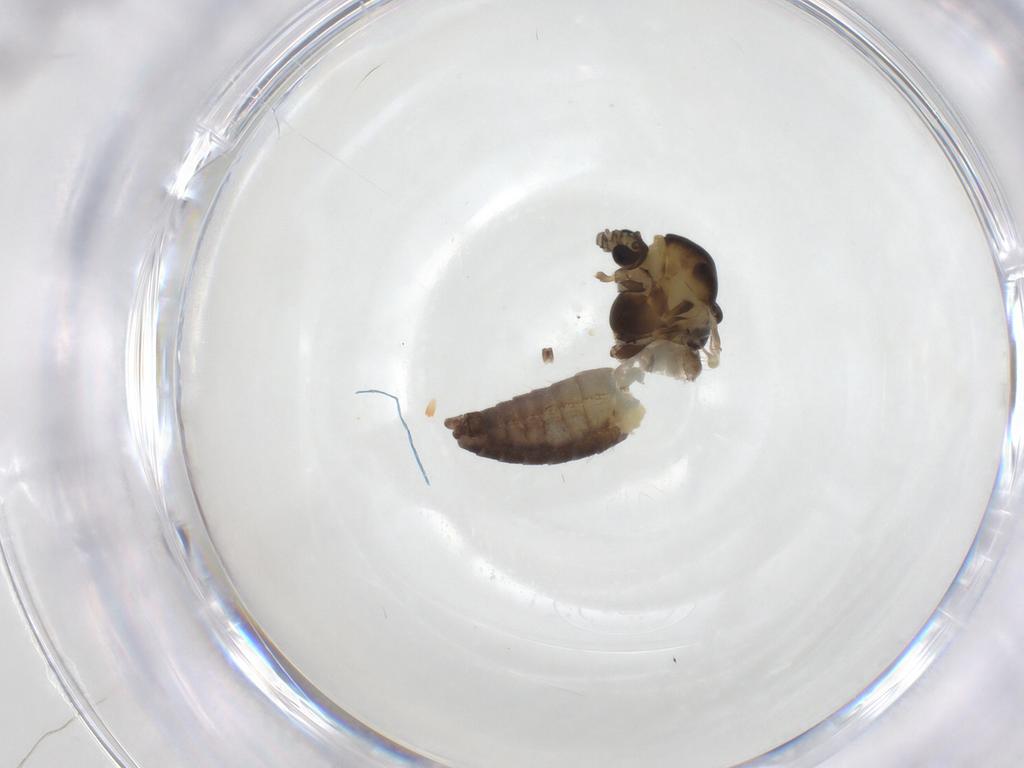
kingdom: Animalia
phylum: Arthropoda
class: Insecta
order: Diptera
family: Chironomidae
